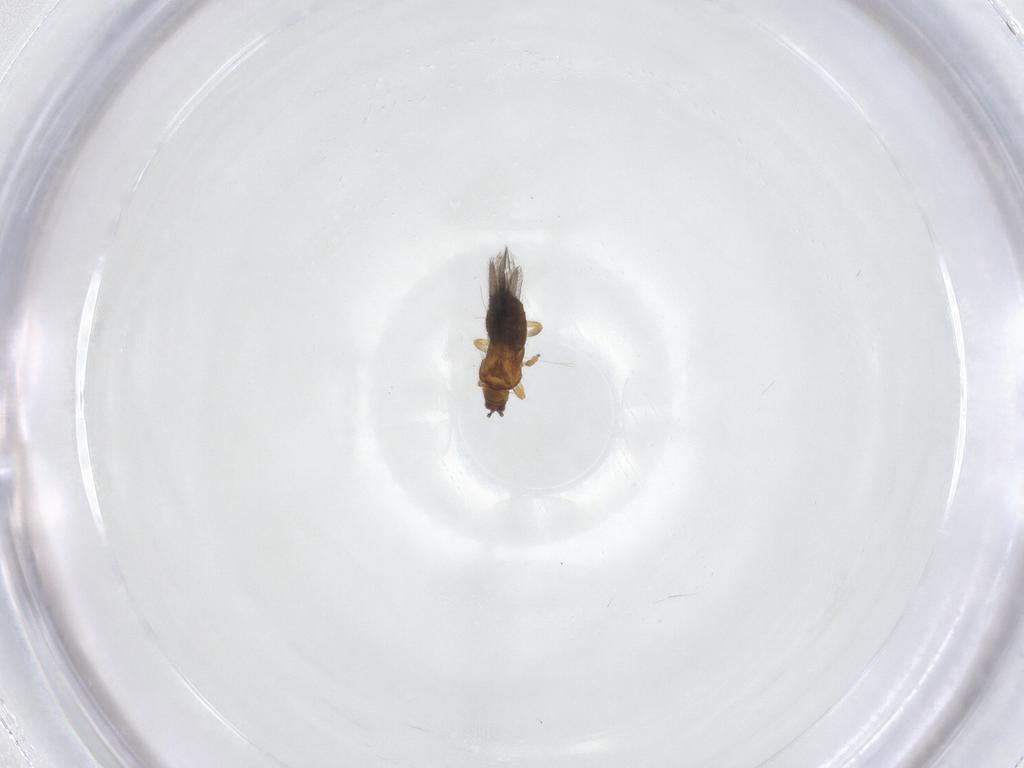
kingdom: Animalia
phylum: Arthropoda
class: Insecta
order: Thysanoptera
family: Thripidae
